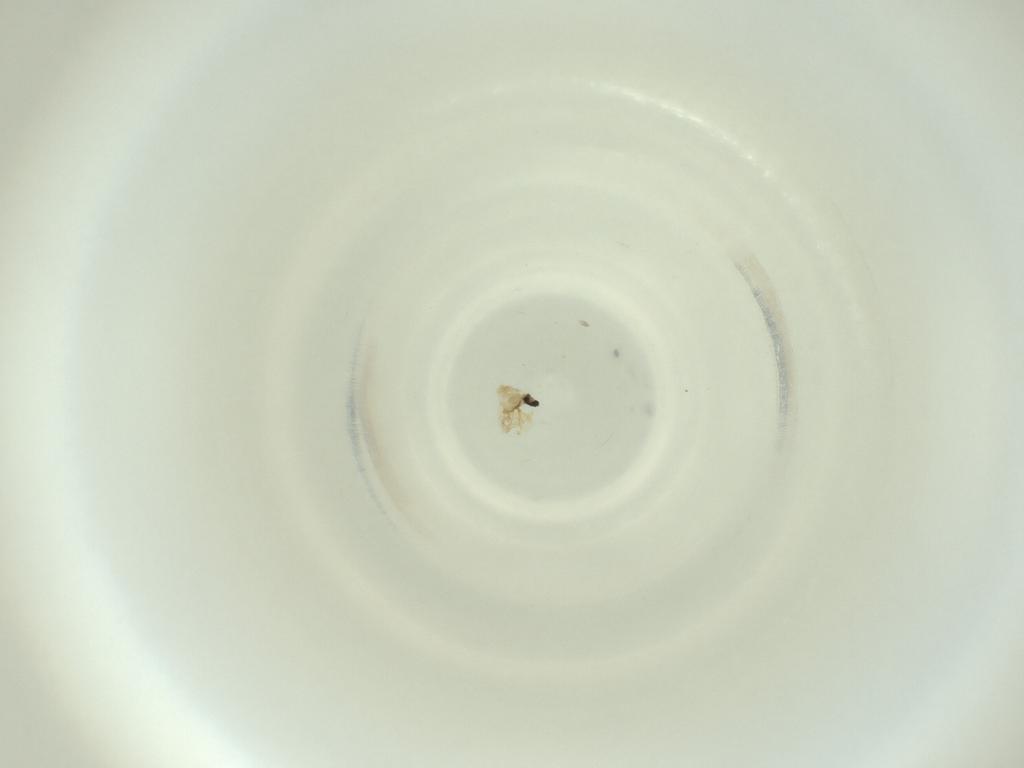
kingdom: Animalia
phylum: Arthropoda
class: Insecta
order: Diptera
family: Cecidomyiidae
